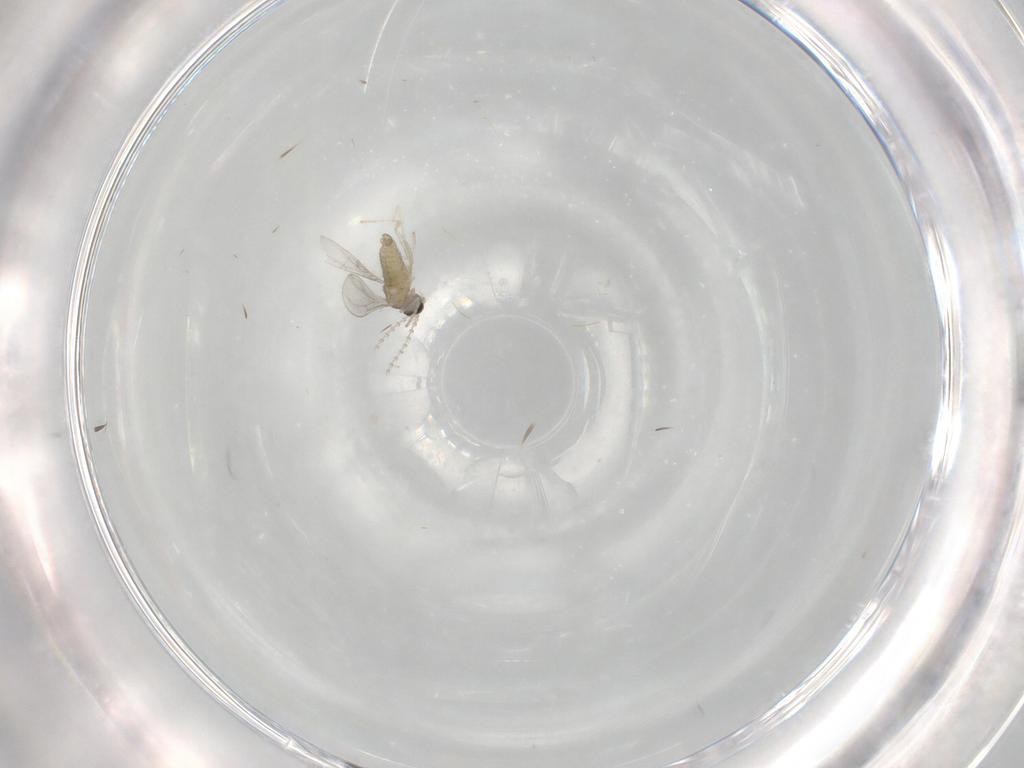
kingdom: Animalia
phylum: Arthropoda
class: Insecta
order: Diptera
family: Cecidomyiidae
